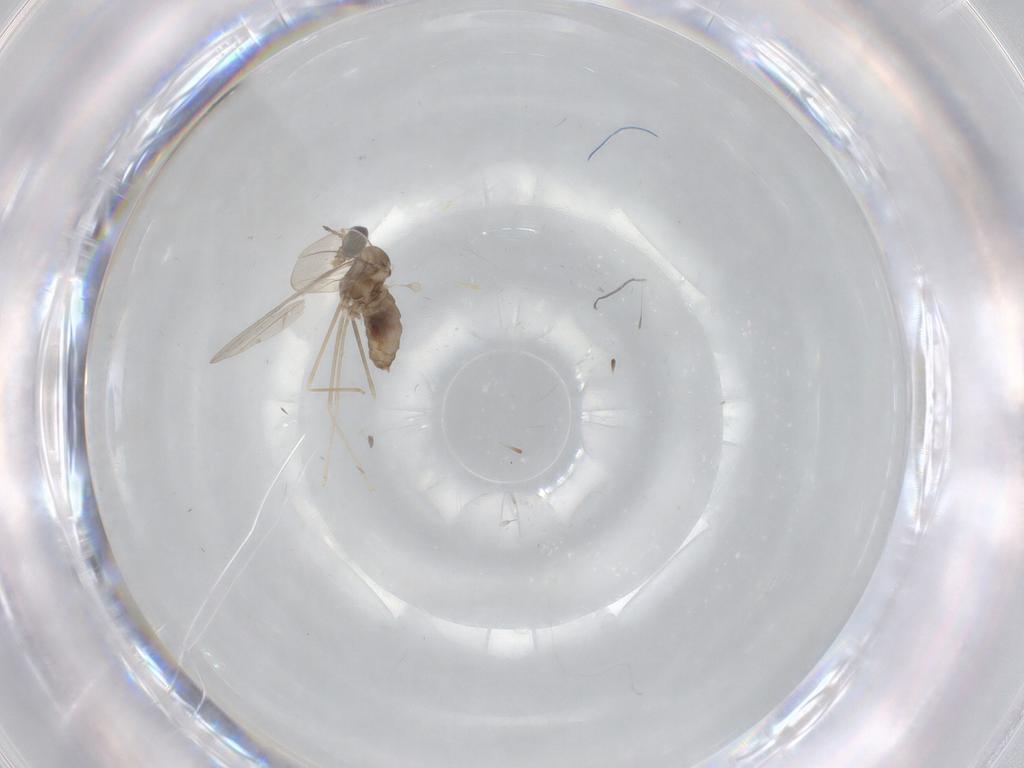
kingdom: Animalia
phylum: Arthropoda
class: Insecta
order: Diptera
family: Cecidomyiidae
